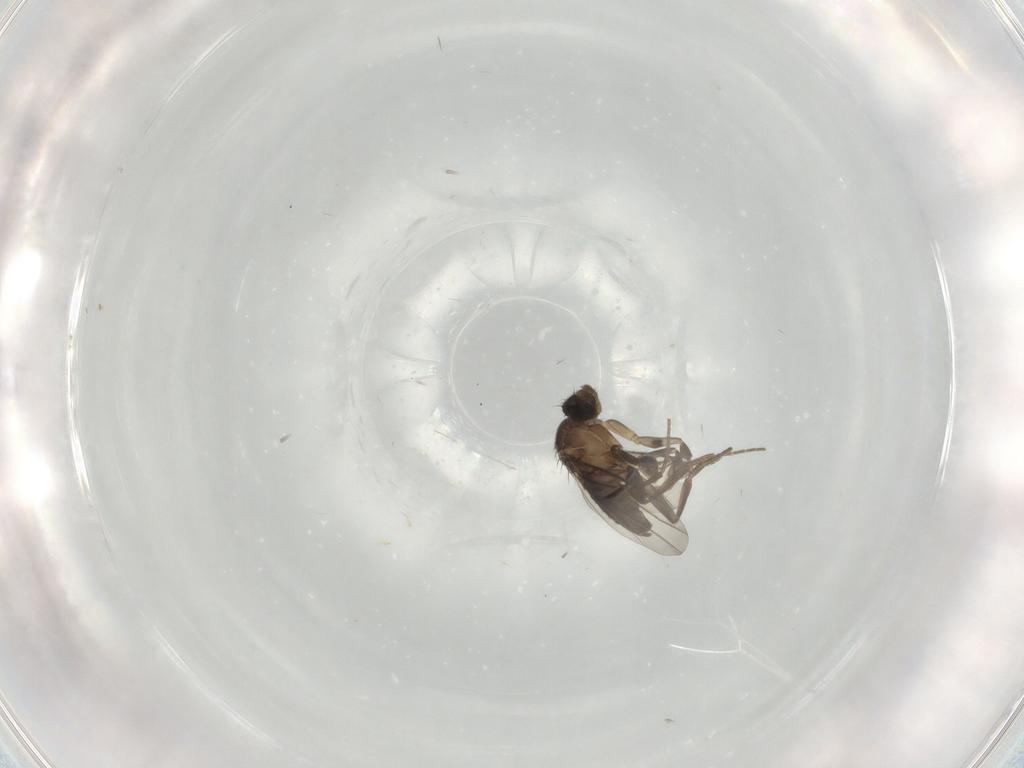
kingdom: Animalia
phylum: Arthropoda
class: Insecta
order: Diptera
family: Phoridae
